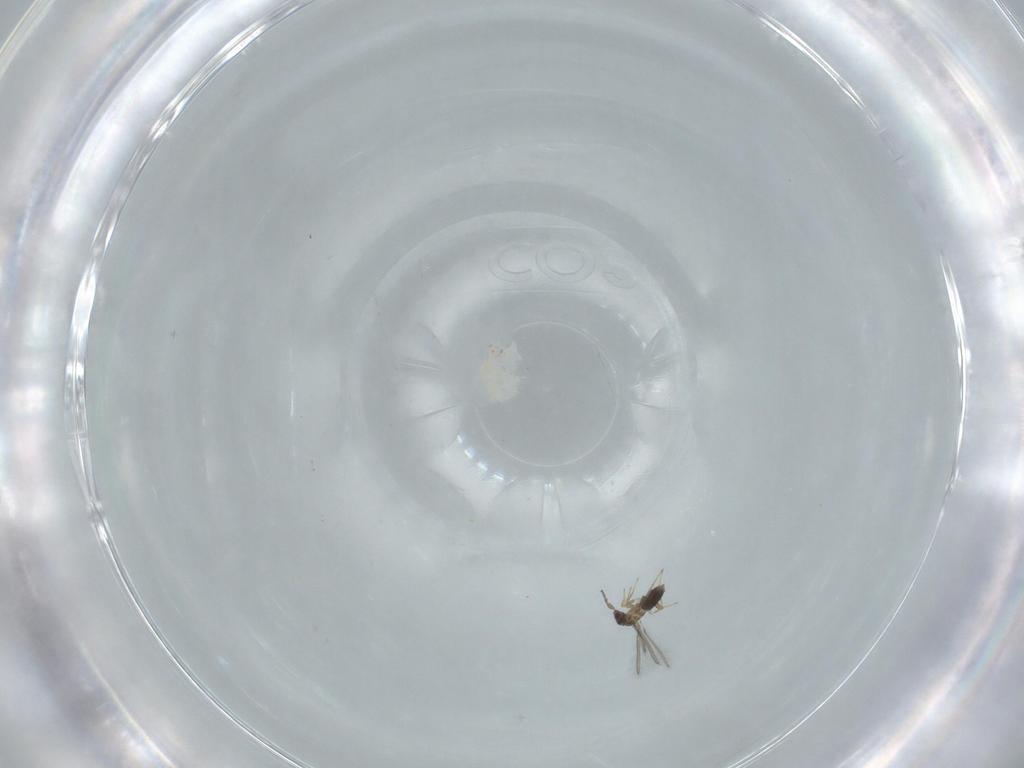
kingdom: Animalia
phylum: Arthropoda
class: Insecta
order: Hymenoptera
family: Mymaridae
